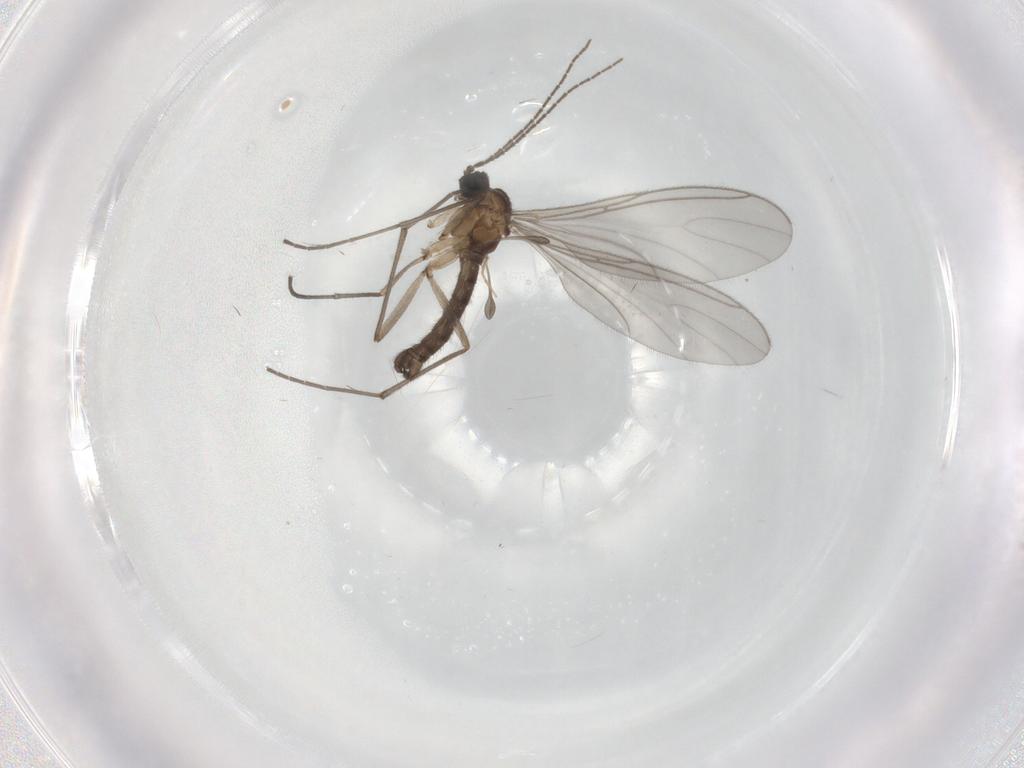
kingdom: Animalia
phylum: Arthropoda
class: Insecta
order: Diptera
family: Sciaridae
